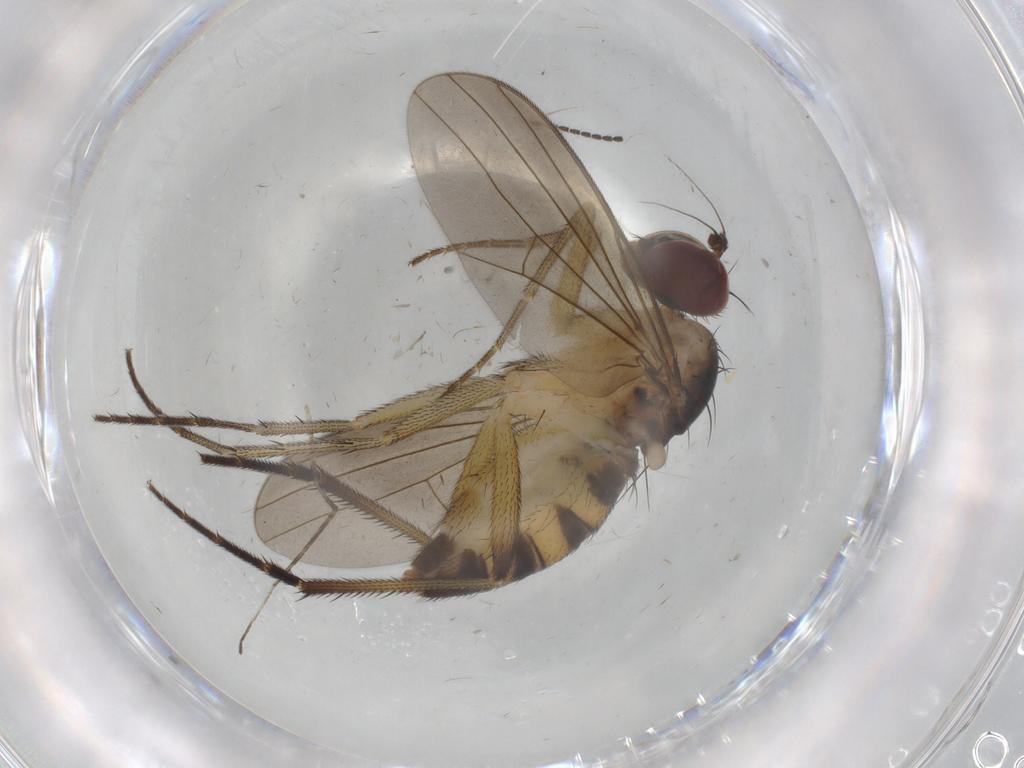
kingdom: Animalia
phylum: Arthropoda
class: Insecta
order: Diptera
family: Dolichopodidae
